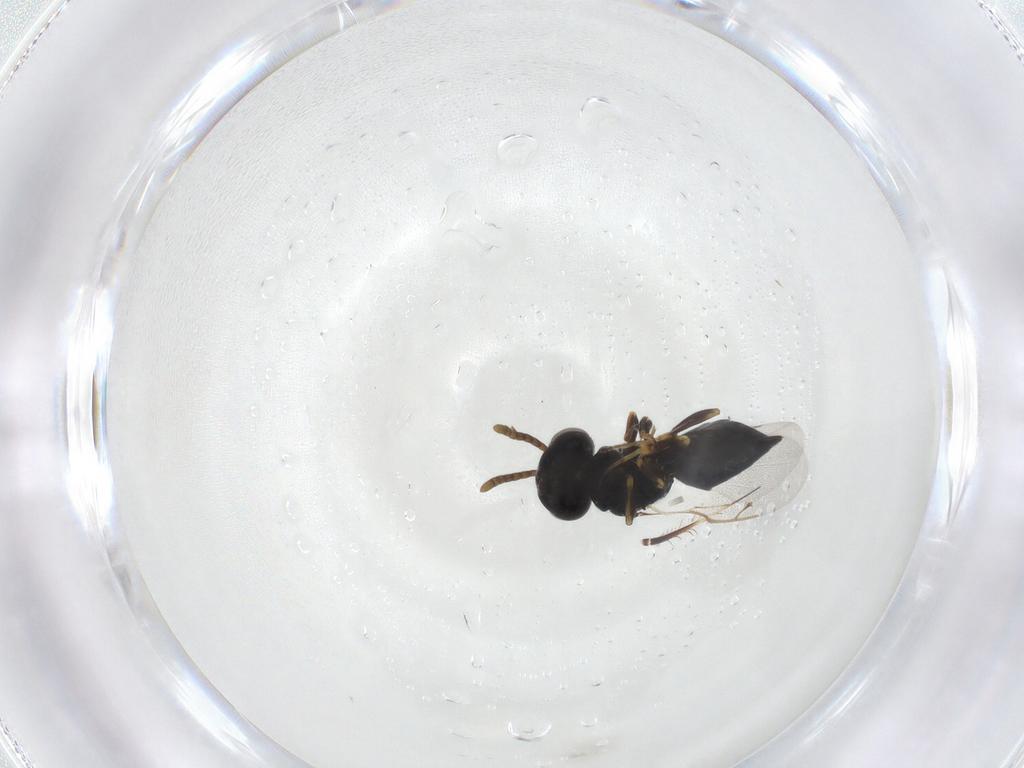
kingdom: Animalia
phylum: Arthropoda
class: Insecta
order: Hymenoptera
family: Pteromalidae
